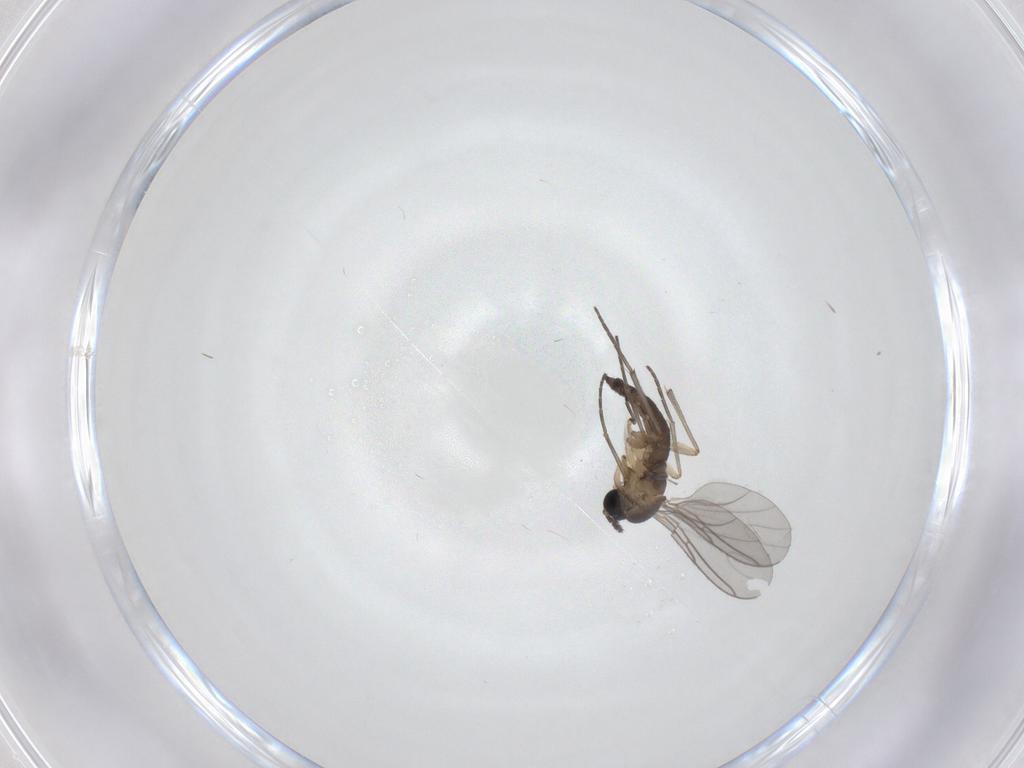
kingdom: Animalia
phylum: Arthropoda
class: Insecta
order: Diptera
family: Sciaridae
